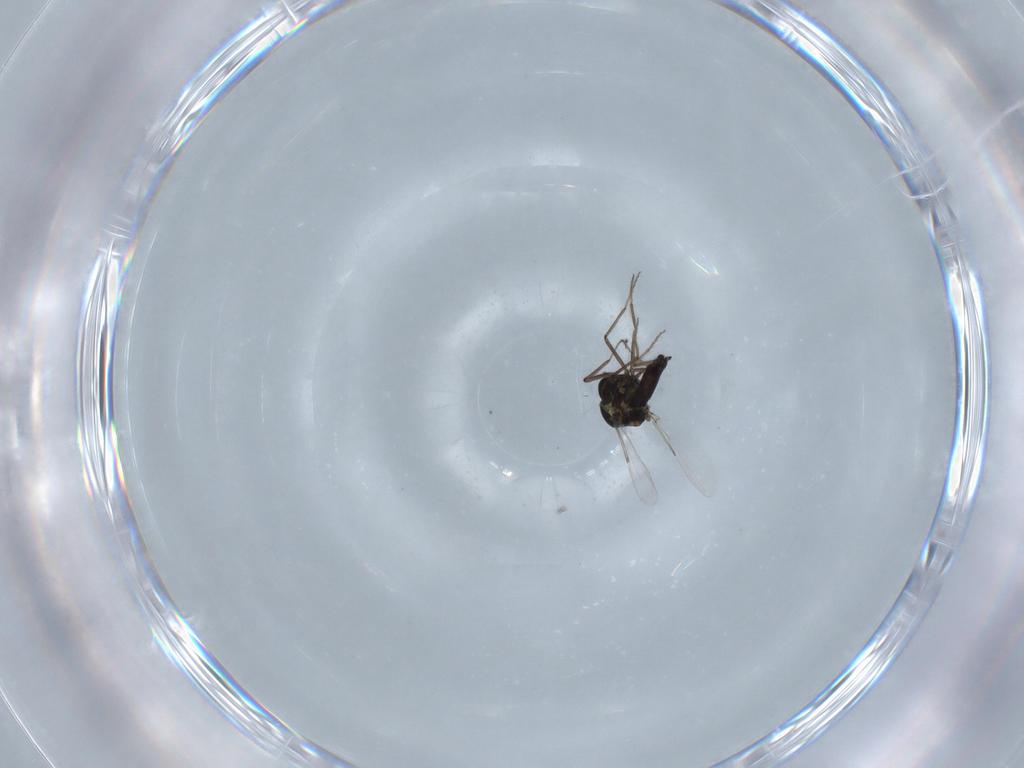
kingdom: Animalia
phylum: Arthropoda
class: Insecta
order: Diptera
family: Ceratopogonidae
